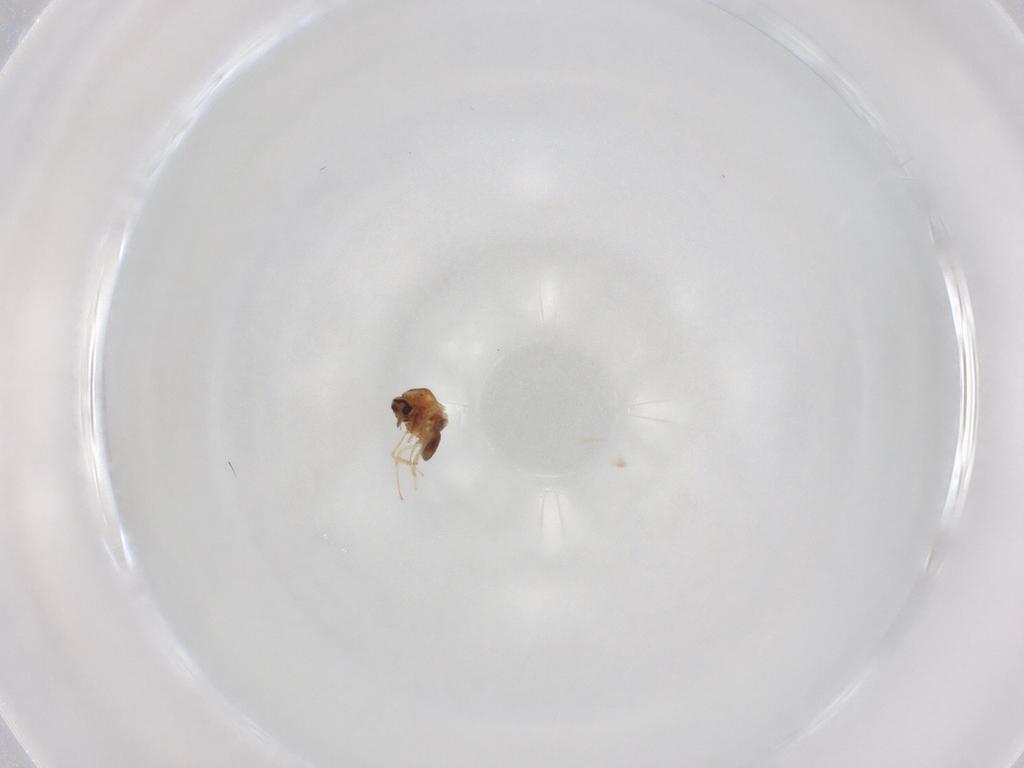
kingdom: Animalia
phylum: Arthropoda
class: Insecta
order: Diptera
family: Ceratopogonidae
